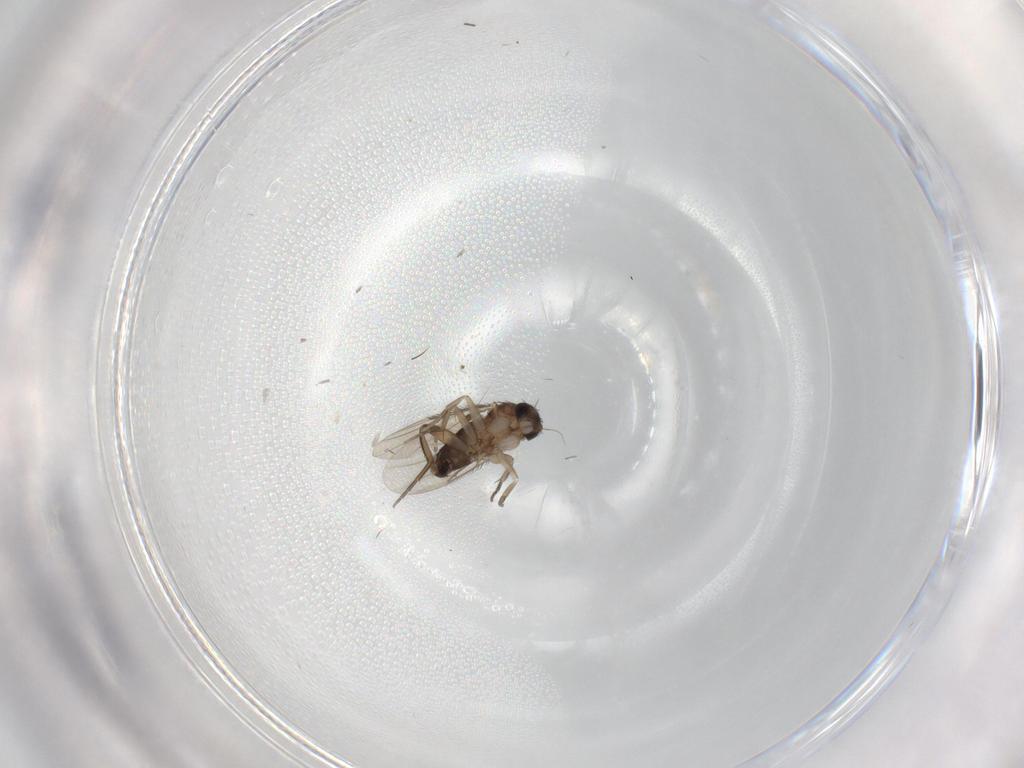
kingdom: Animalia
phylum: Arthropoda
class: Insecta
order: Diptera
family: Phoridae
